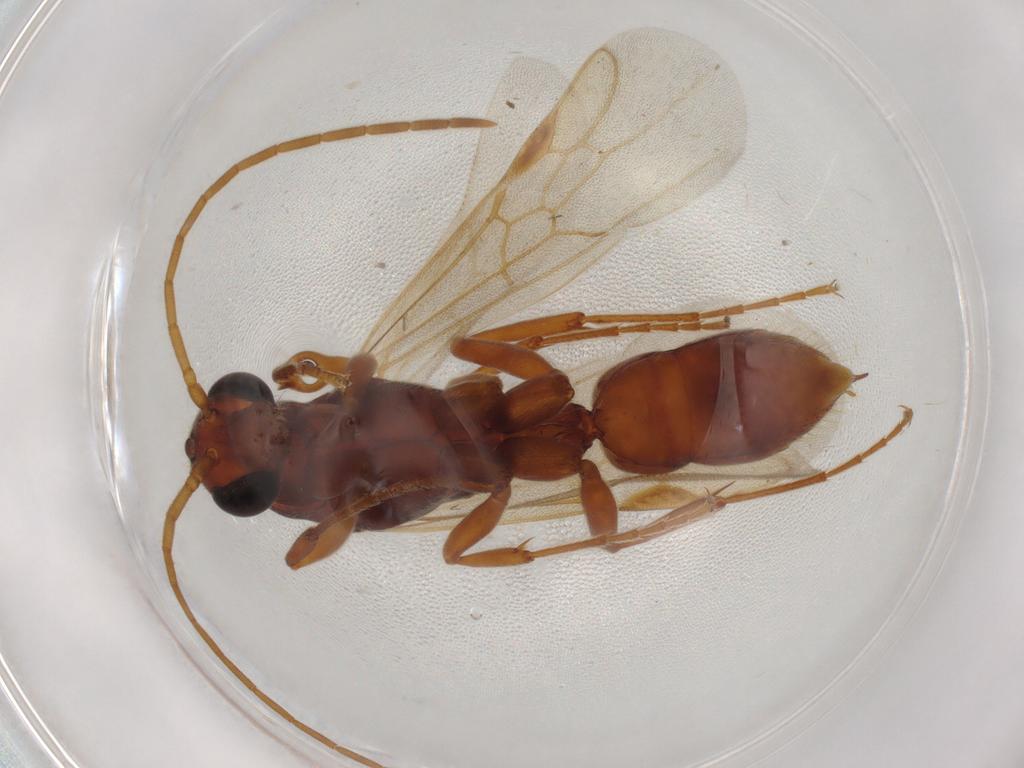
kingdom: Animalia
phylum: Arthropoda
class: Insecta
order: Hymenoptera
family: Formicidae
